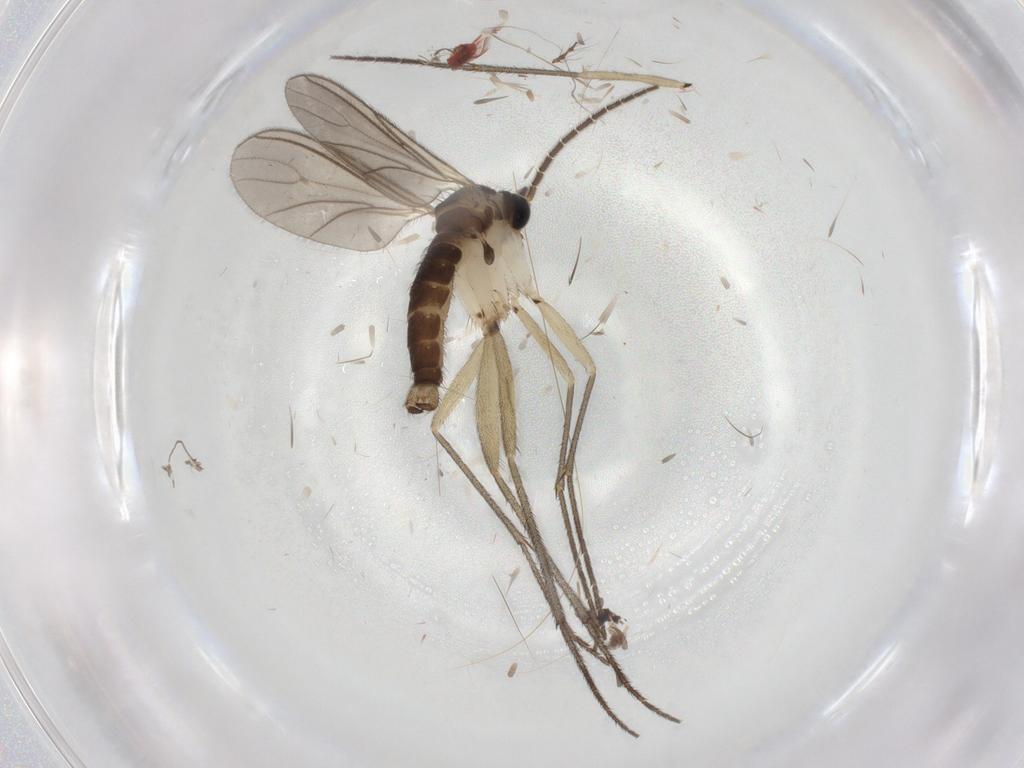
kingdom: Animalia
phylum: Arthropoda
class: Insecta
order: Diptera
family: Sciaridae
